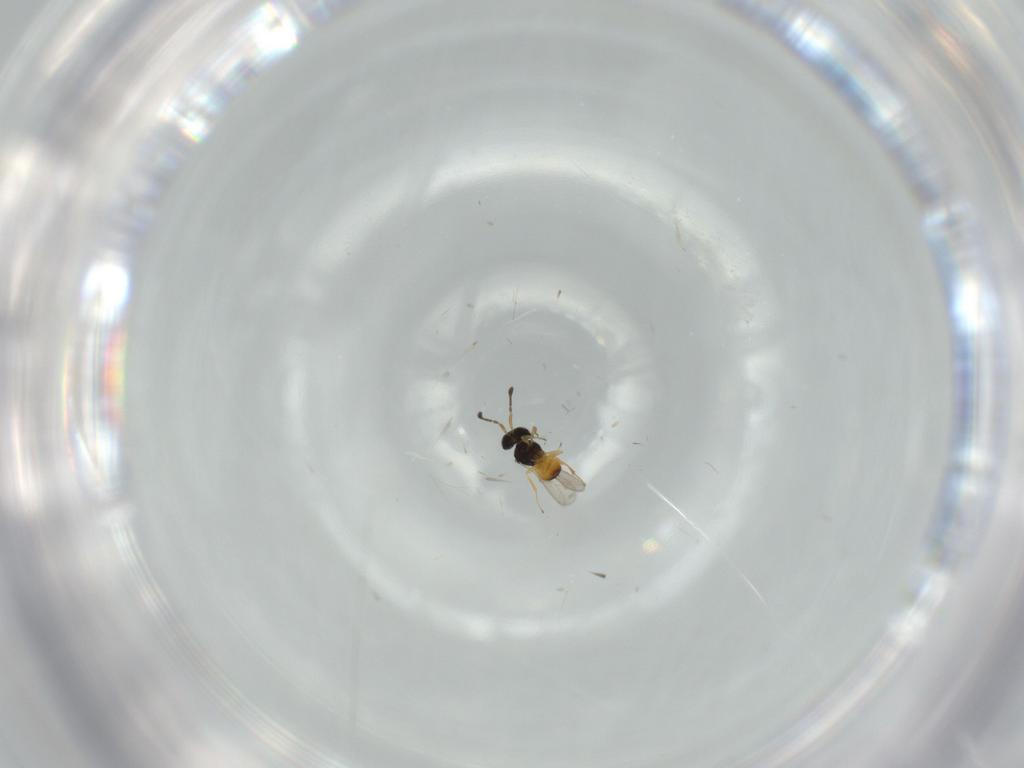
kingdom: Animalia
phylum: Arthropoda
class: Insecta
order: Hymenoptera
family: Scelionidae
